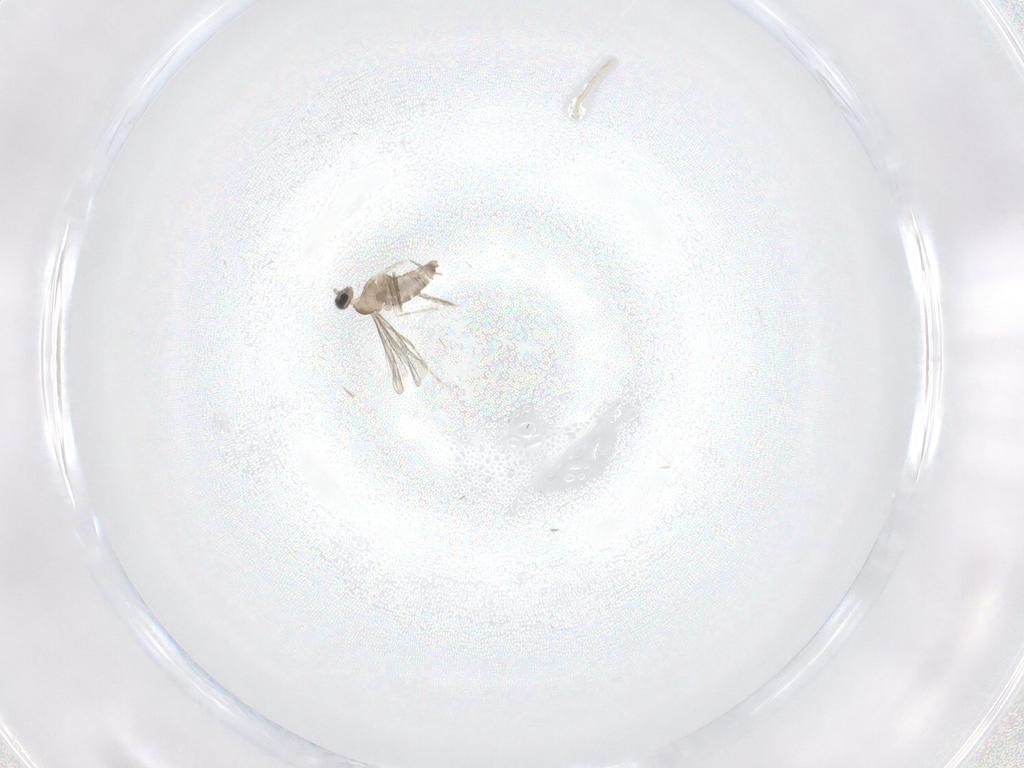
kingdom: Animalia
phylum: Arthropoda
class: Insecta
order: Diptera
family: Cecidomyiidae
